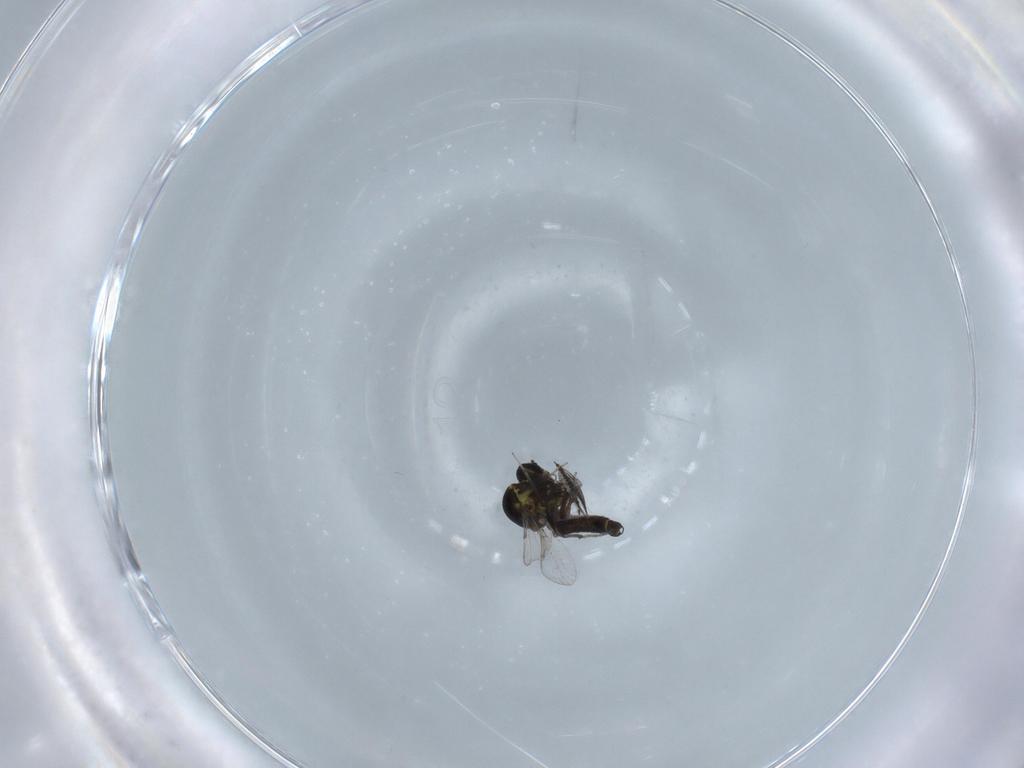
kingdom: Animalia
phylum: Arthropoda
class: Insecta
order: Diptera
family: Ceratopogonidae
